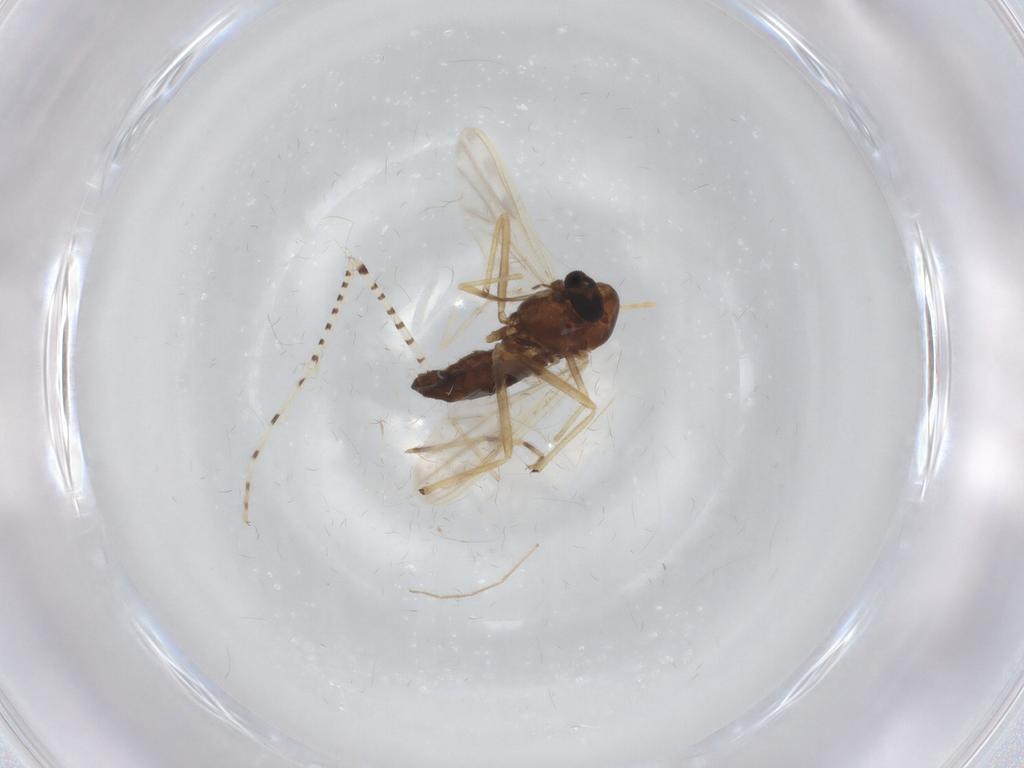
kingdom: Animalia
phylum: Arthropoda
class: Insecta
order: Diptera
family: Chironomidae
